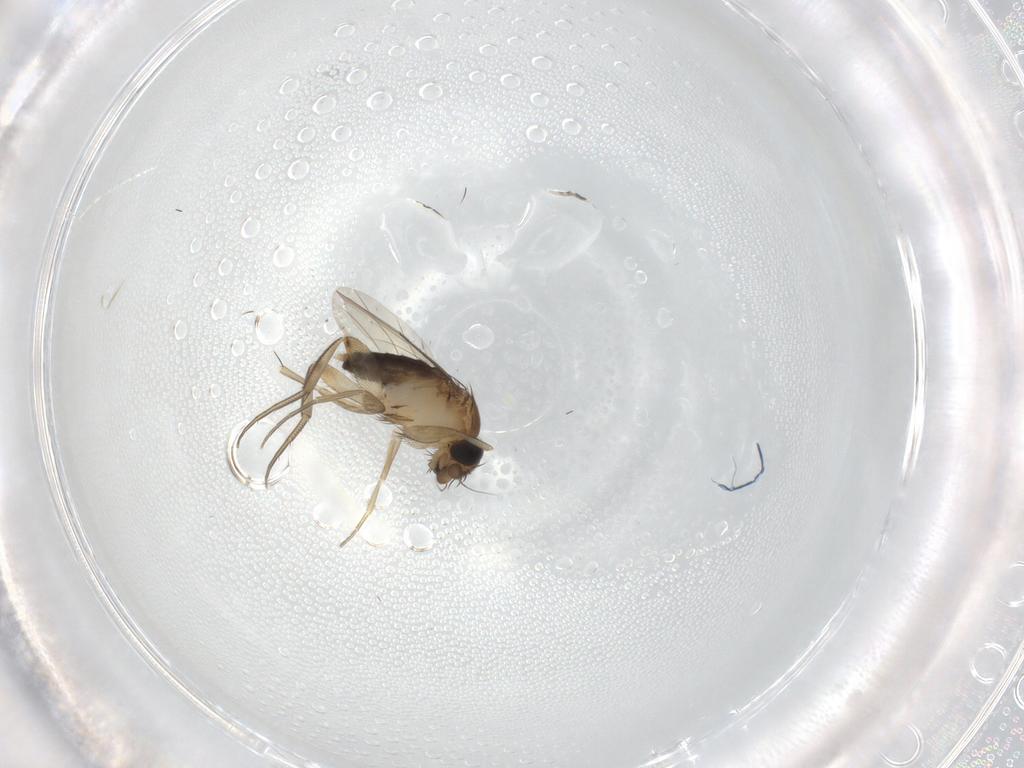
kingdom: Animalia
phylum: Arthropoda
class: Insecta
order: Diptera
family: Phoridae
